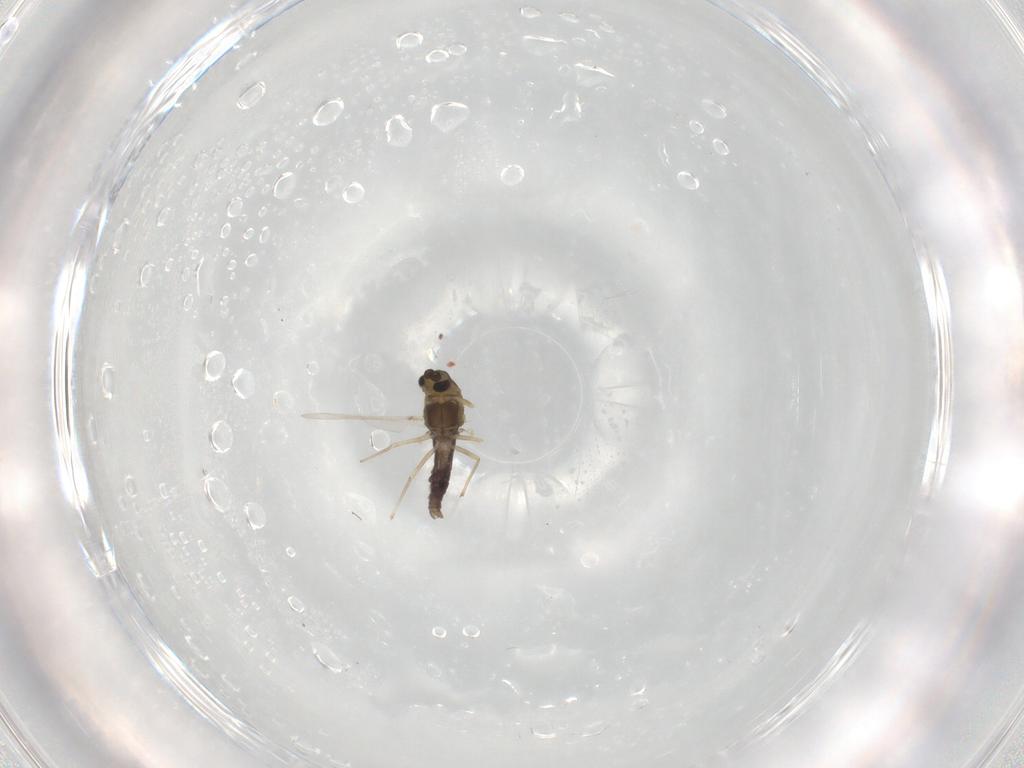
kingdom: Animalia
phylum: Arthropoda
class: Insecta
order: Diptera
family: Chironomidae
